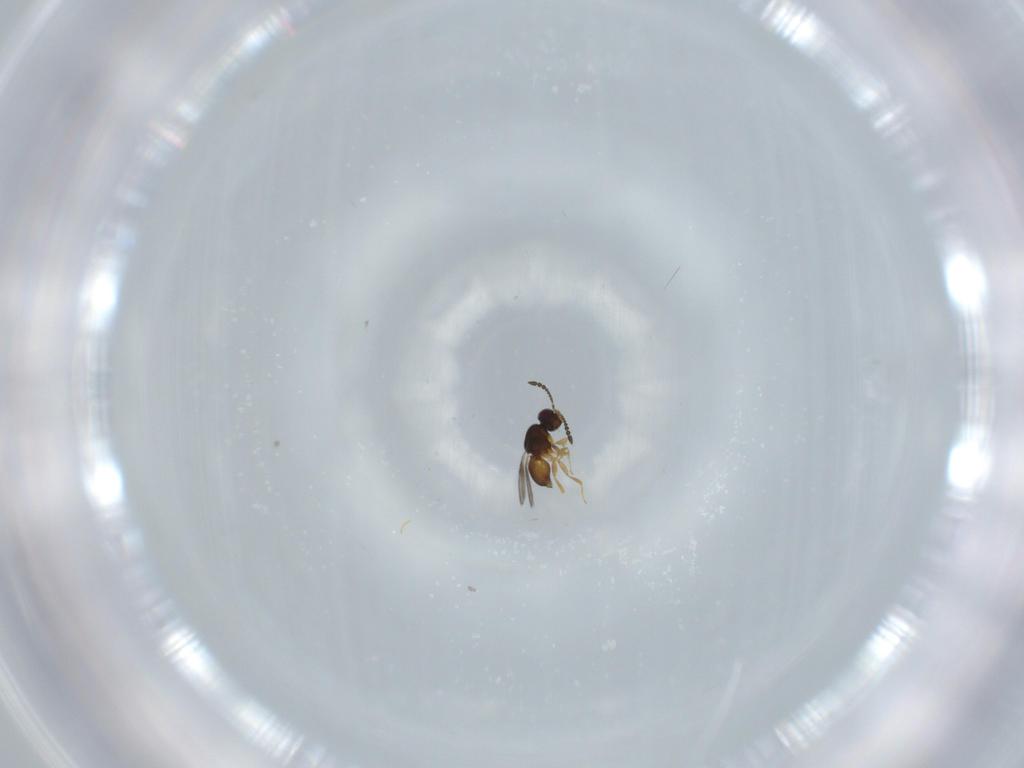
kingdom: Animalia
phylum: Arthropoda
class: Insecta
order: Hymenoptera
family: Ceraphronidae
